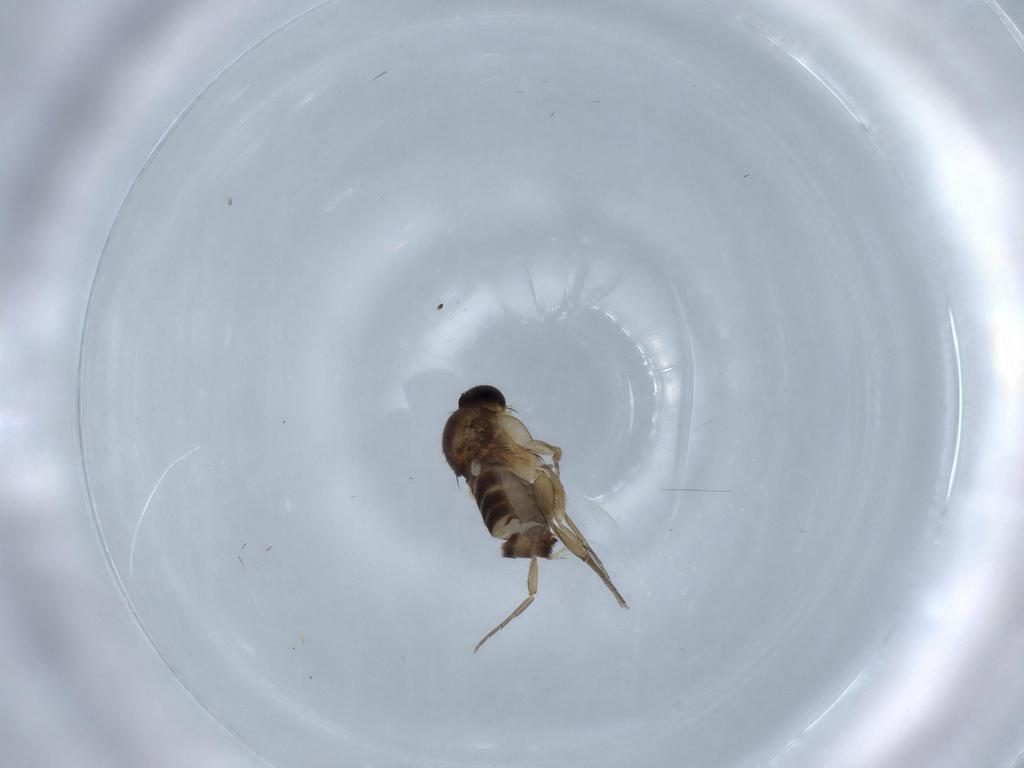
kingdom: Animalia
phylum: Arthropoda
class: Insecta
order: Diptera
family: Phoridae
